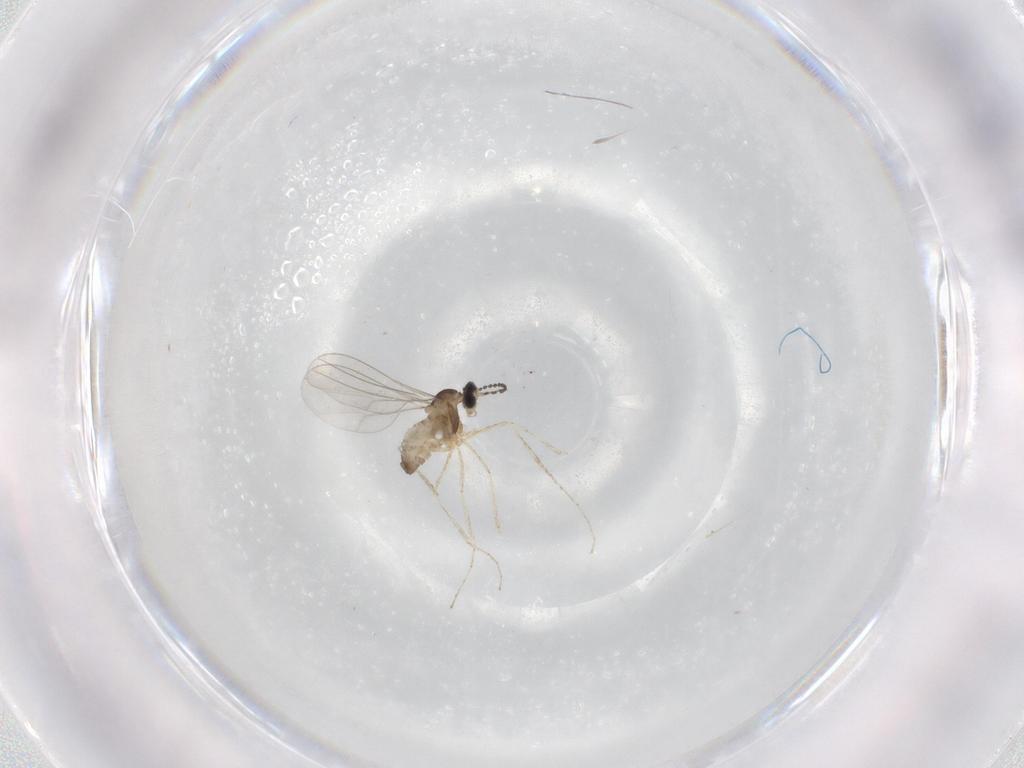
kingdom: Animalia
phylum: Arthropoda
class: Insecta
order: Diptera
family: Cecidomyiidae
